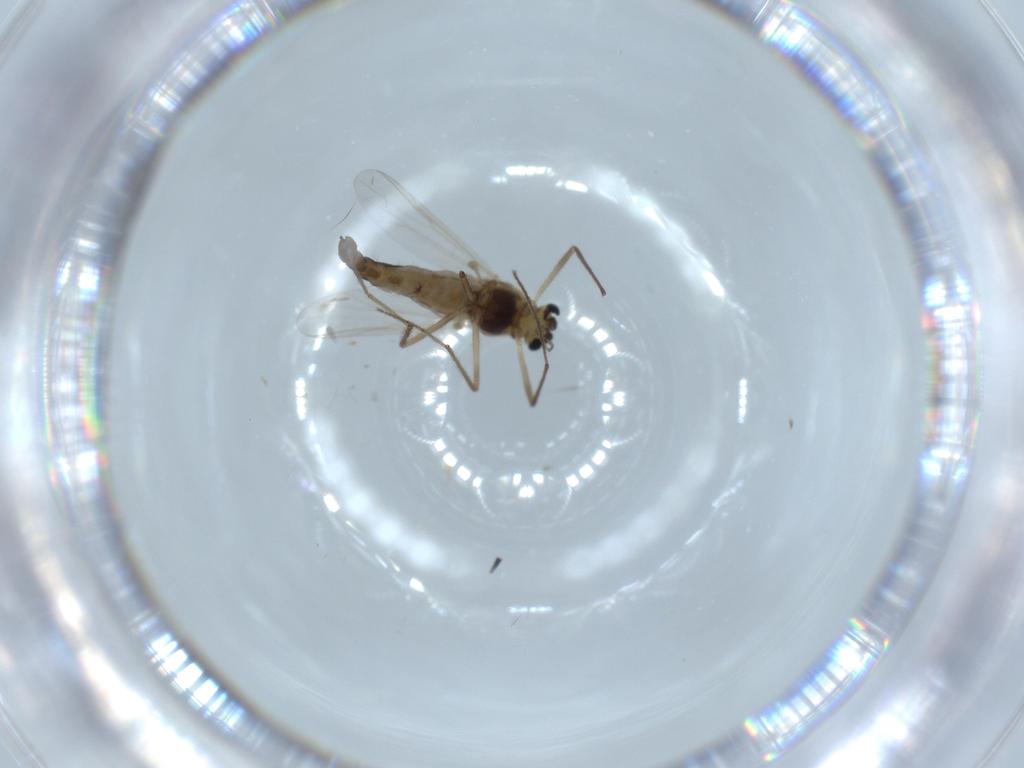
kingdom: Animalia
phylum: Arthropoda
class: Insecta
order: Diptera
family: Chironomidae
